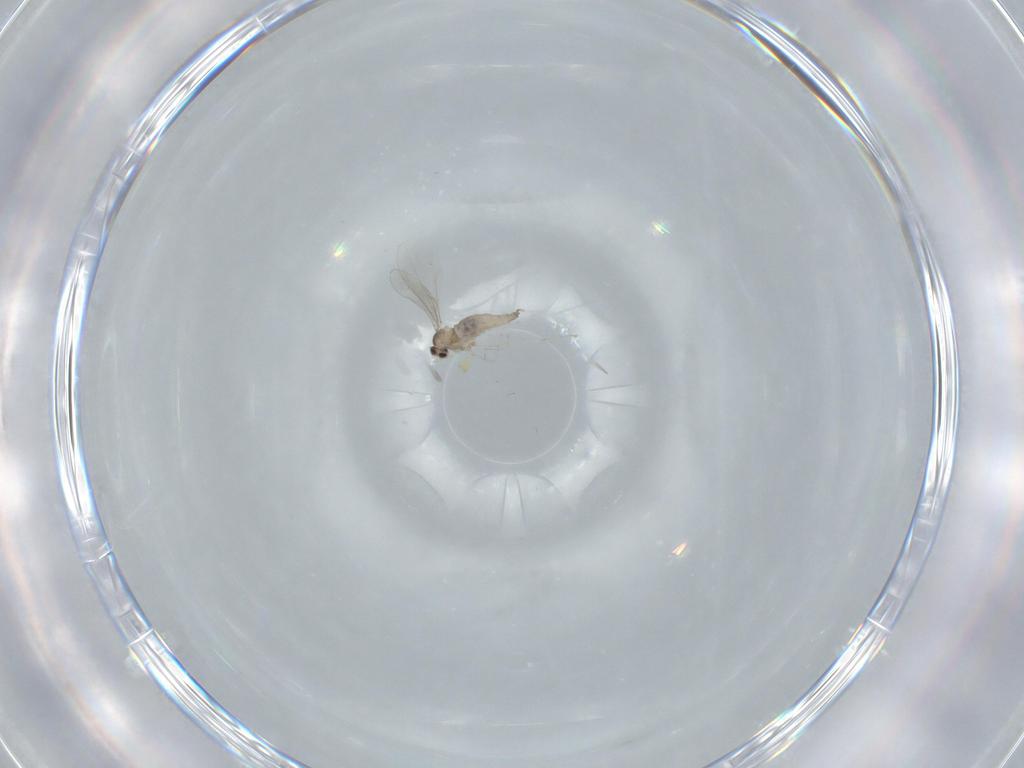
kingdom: Animalia
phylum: Arthropoda
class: Insecta
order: Diptera
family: Cecidomyiidae
